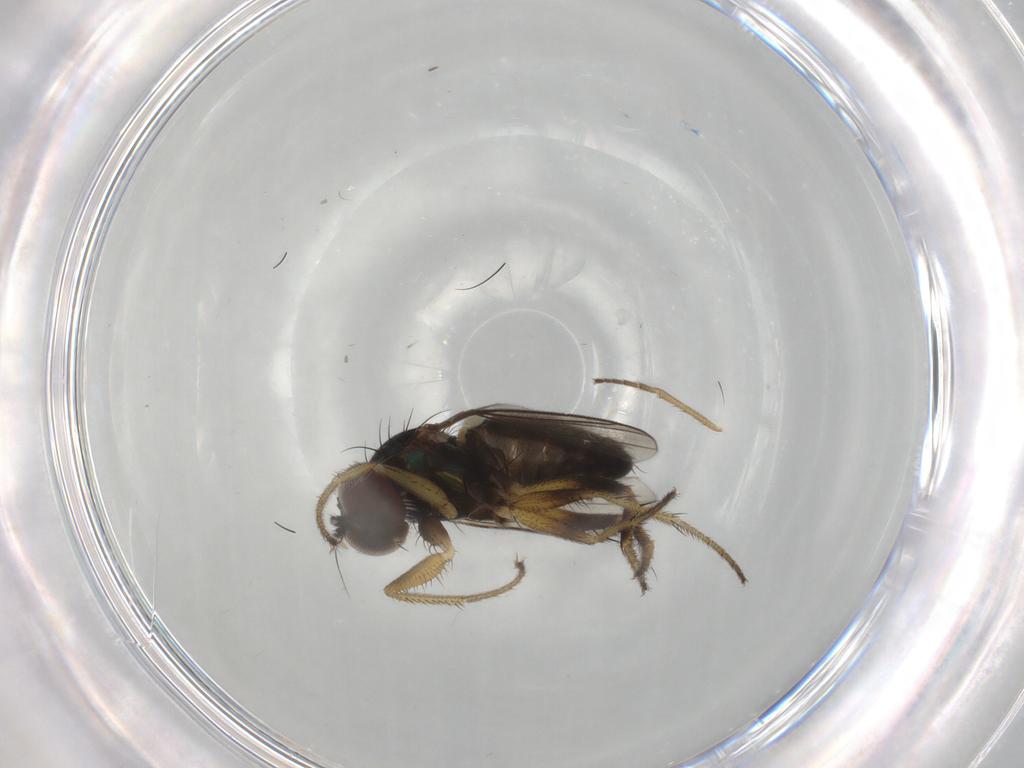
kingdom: Animalia
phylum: Arthropoda
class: Insecta
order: Diptera
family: Dolichopodidae
